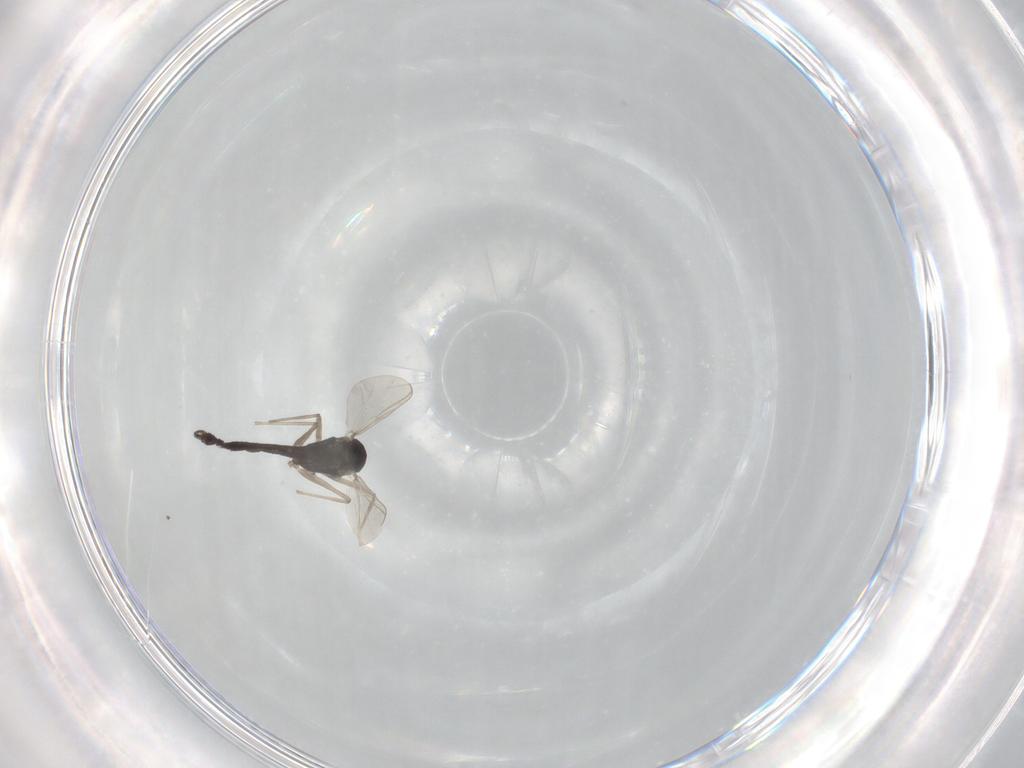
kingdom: Animalia
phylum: Arthropoda
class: Insecta
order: Diptera
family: Chironomidae
